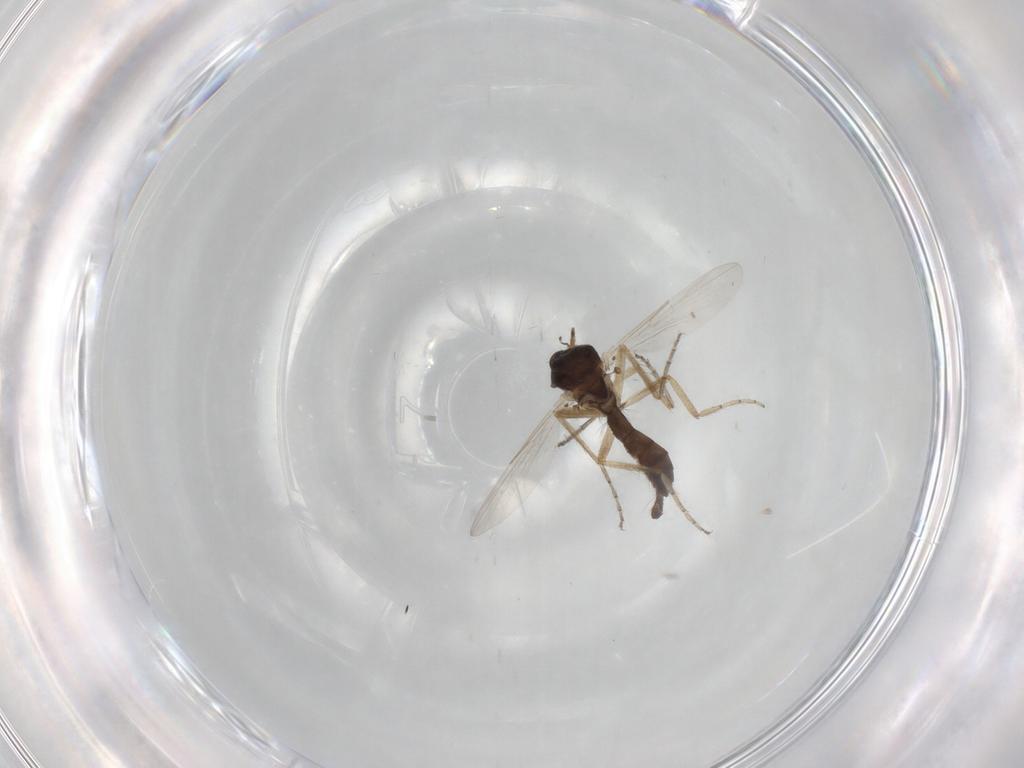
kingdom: Animalia
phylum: Arthropoda
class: Insecta
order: Diptera
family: Ceratopogonidae
